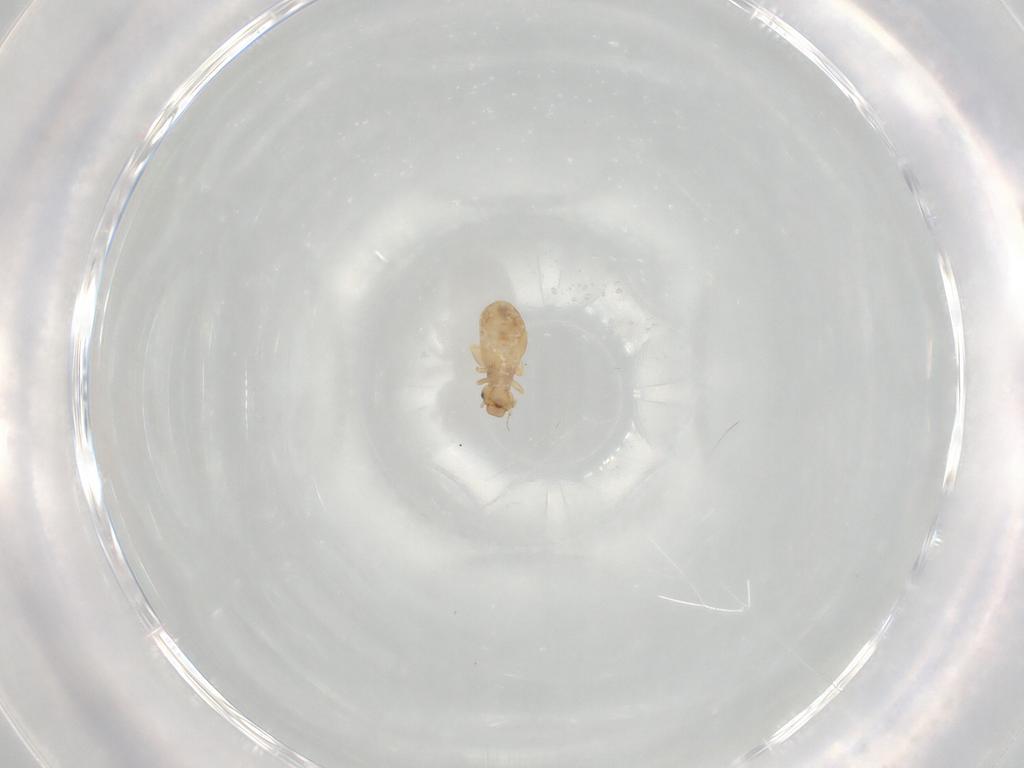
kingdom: Animalia
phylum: Arthropoda
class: Insecta
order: Psocodea
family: Liposcelididae
